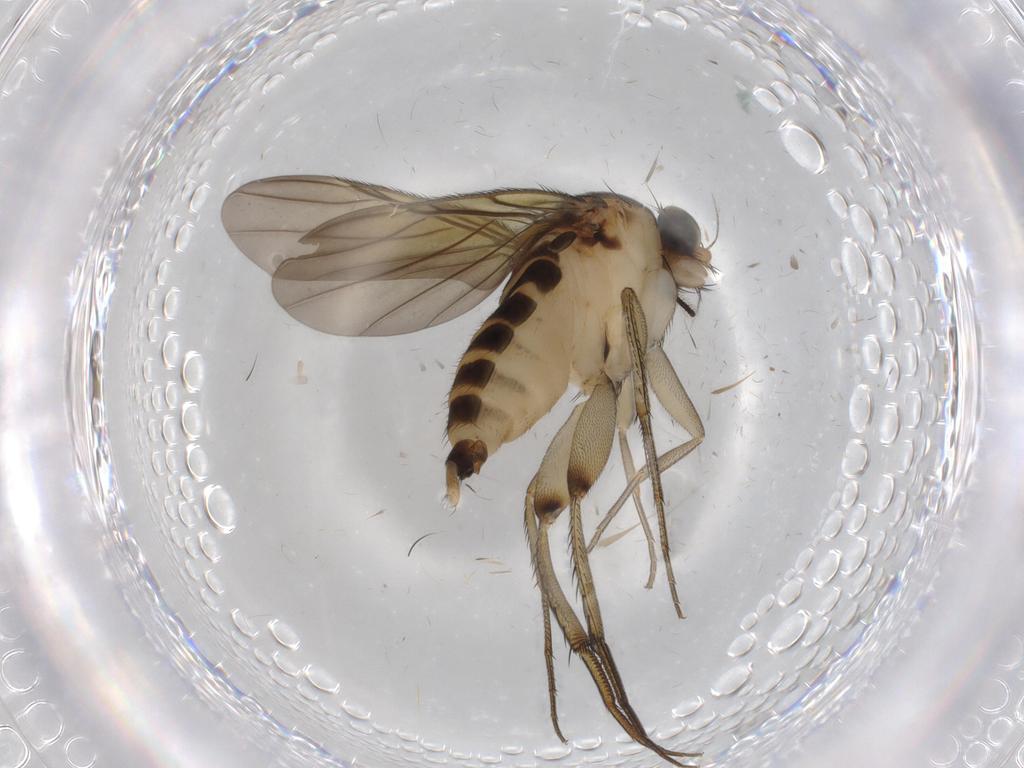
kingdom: Animalia
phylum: Arthropoda
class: Insecta
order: Diptera
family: Phoridae
